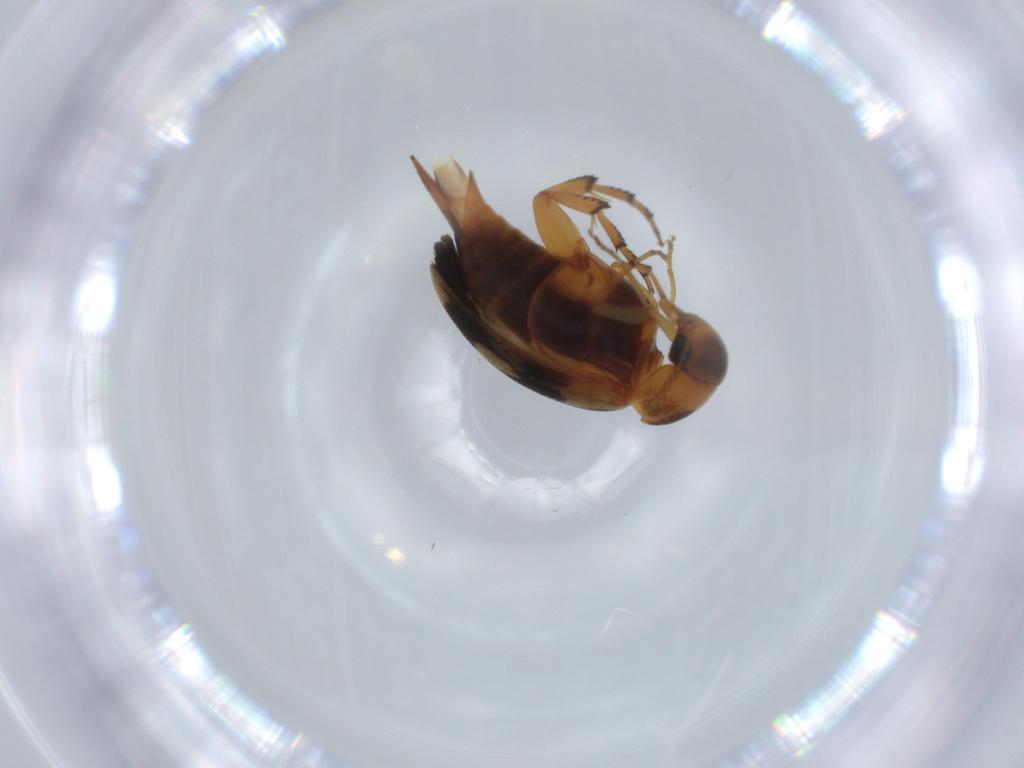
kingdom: Animalia
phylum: Arthropoda
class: Insecta
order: Coleoptera
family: Mordellidae
